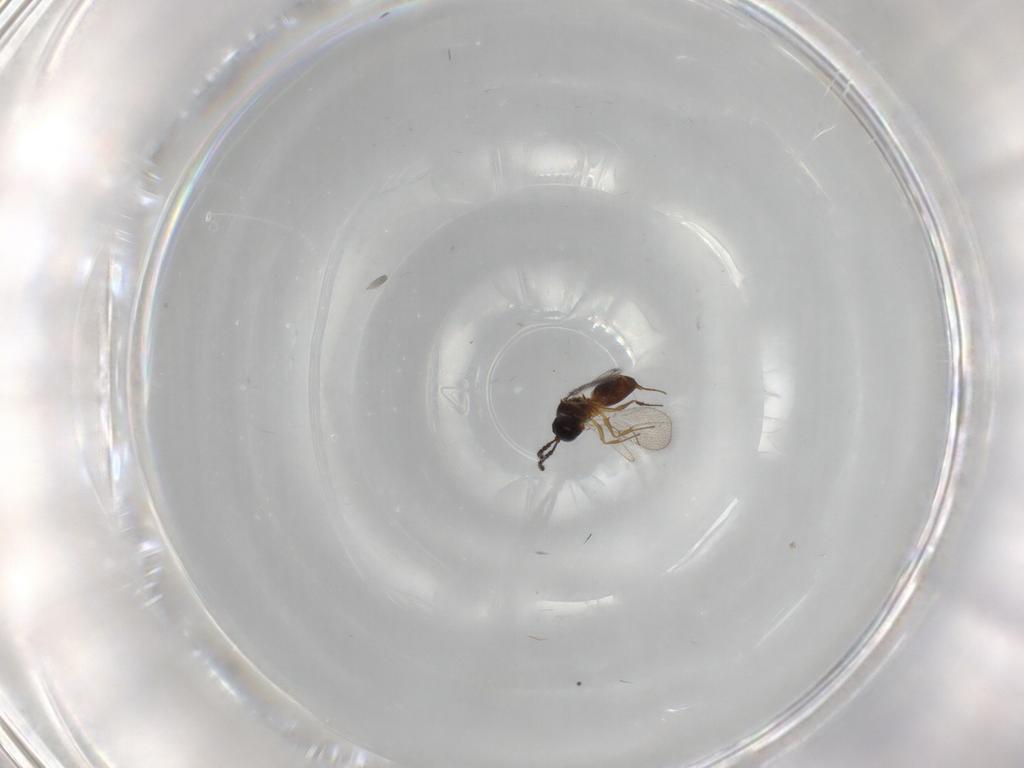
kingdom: Animalia
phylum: Arthropoda
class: Insecta
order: Hymenoptera
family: Figitidae
